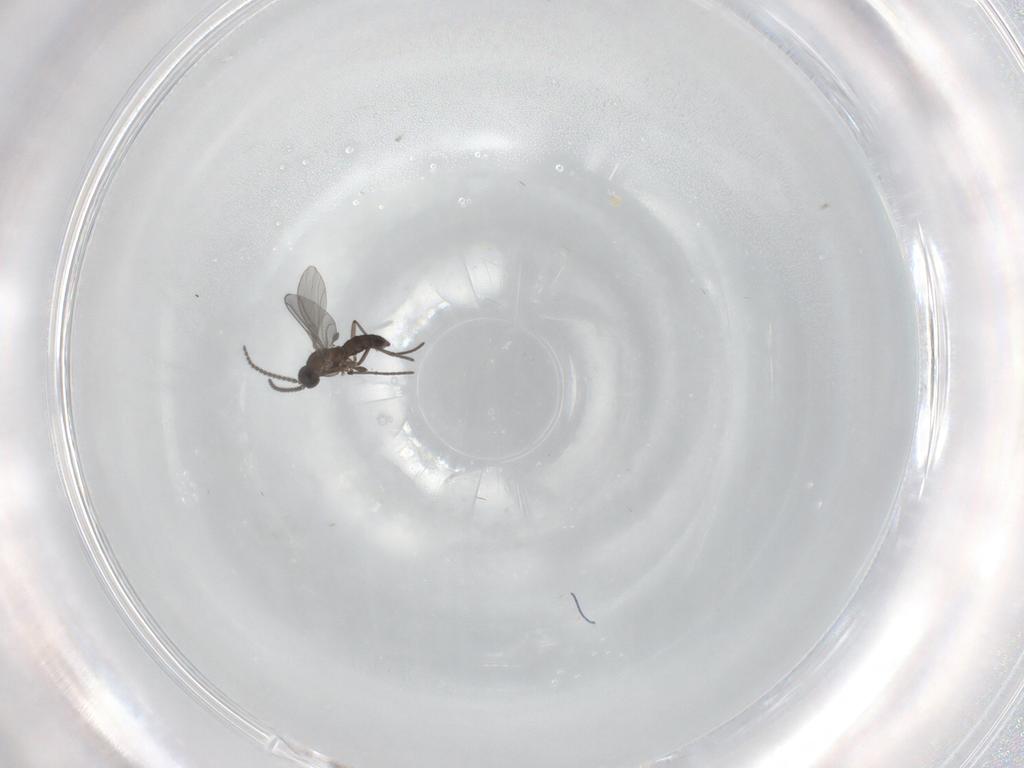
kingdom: Animalia
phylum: Arthropoda
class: Insecta
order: Diptera
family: Sciaridae
